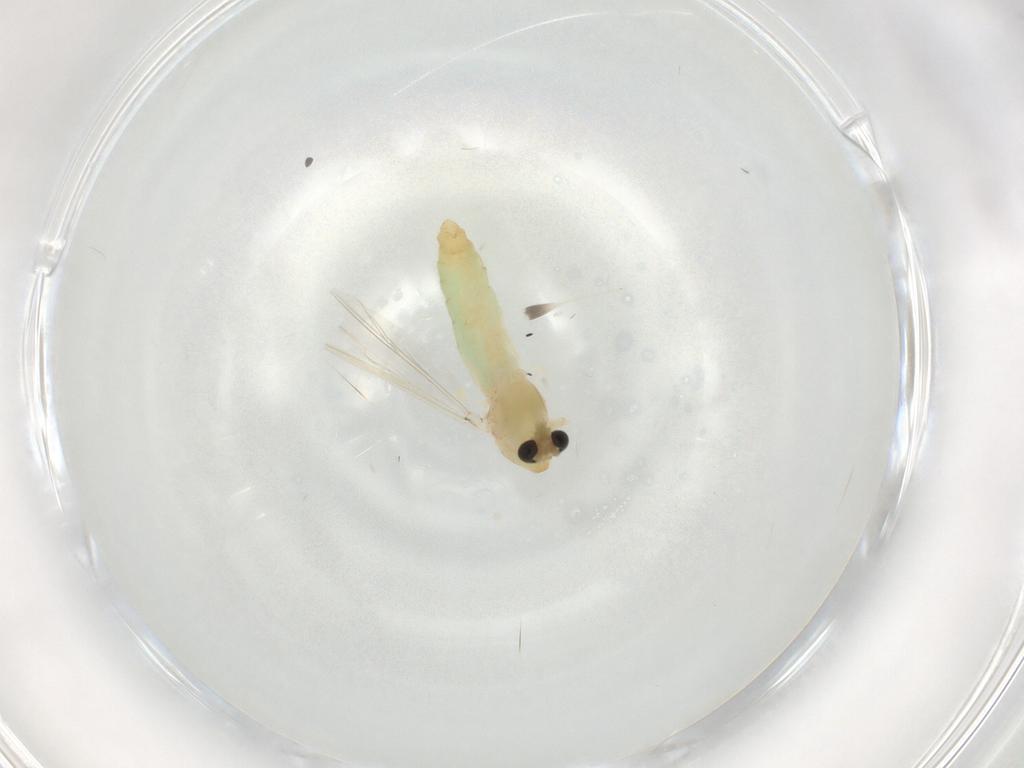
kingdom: Animalia
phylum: Arthropoda
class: Insecta
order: Diptera
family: Chironomidae
